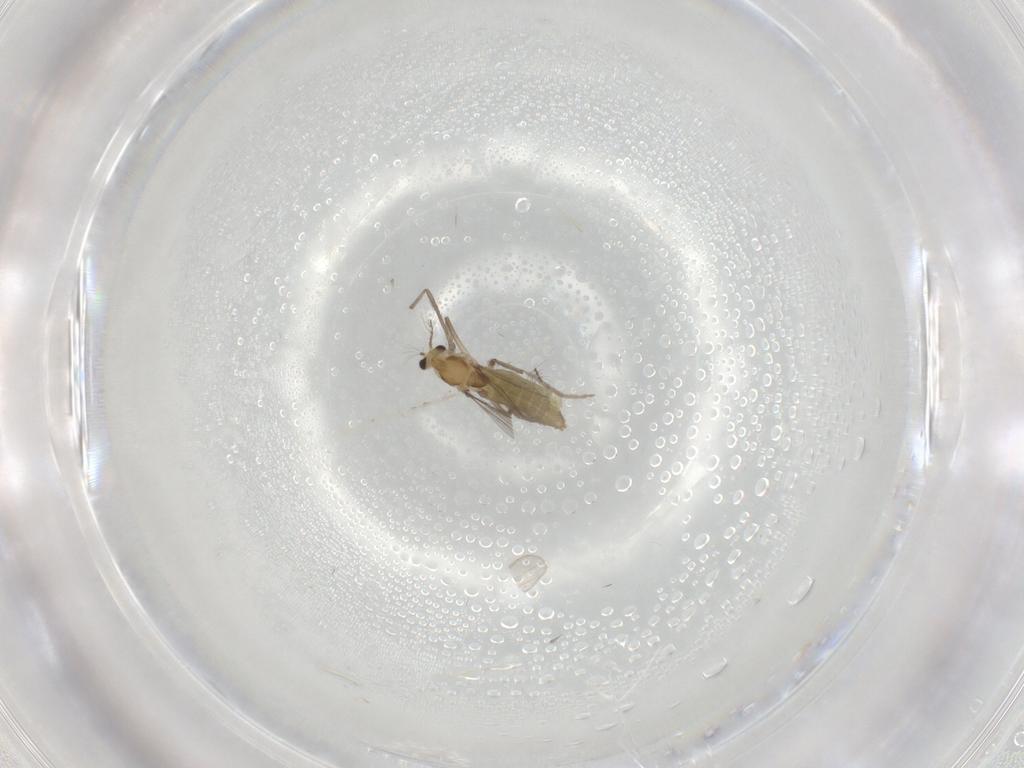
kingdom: Animalia
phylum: Arthropoda
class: Insecta
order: Diptera
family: Chironomidae
